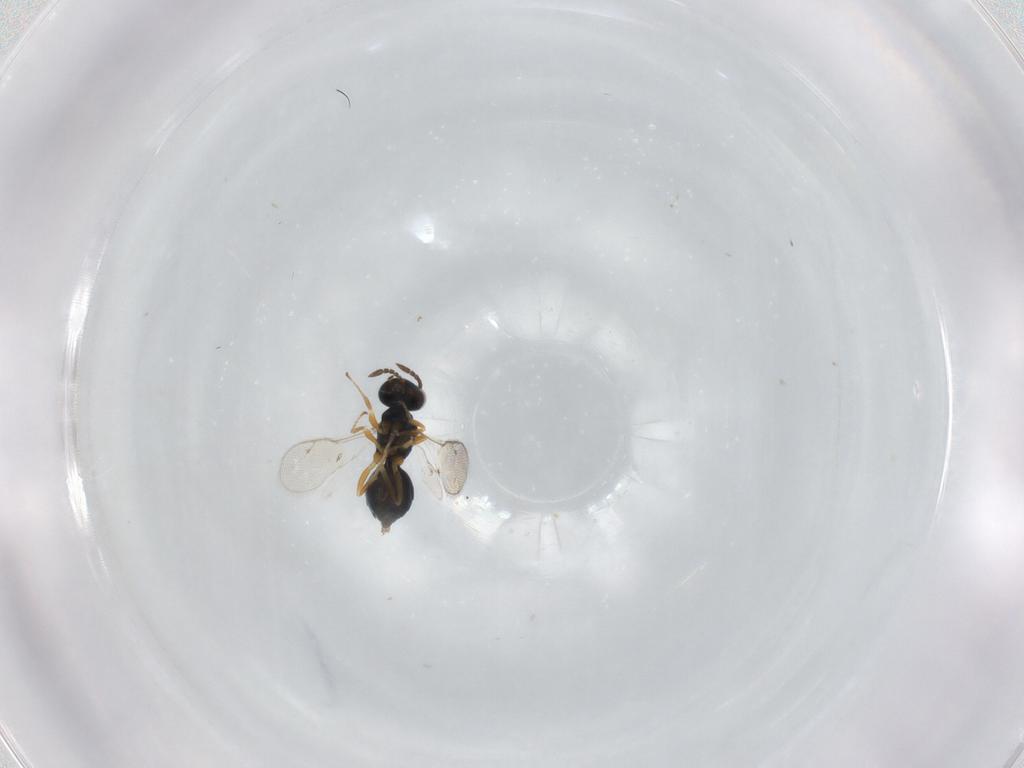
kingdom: Animalia
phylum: Arthropoda
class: Insecta
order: Hymenoptera
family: Pteromalidae
